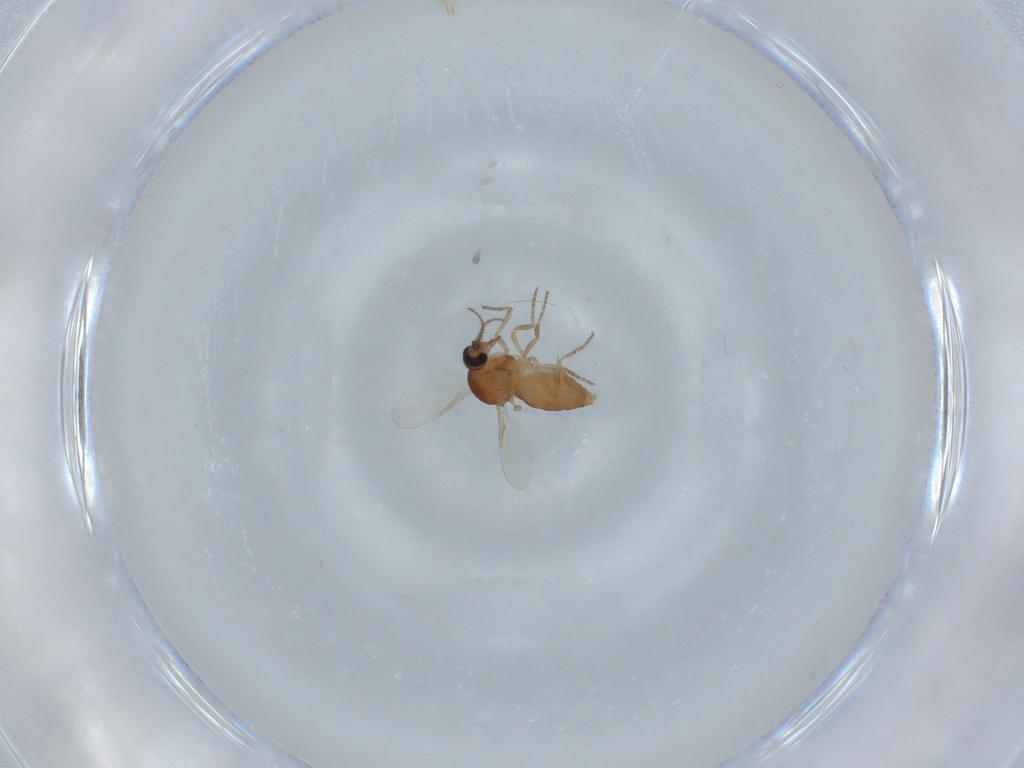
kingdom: Animalia
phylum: Arthropoda
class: Insecta
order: Diptera
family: Ceratopogonidae
